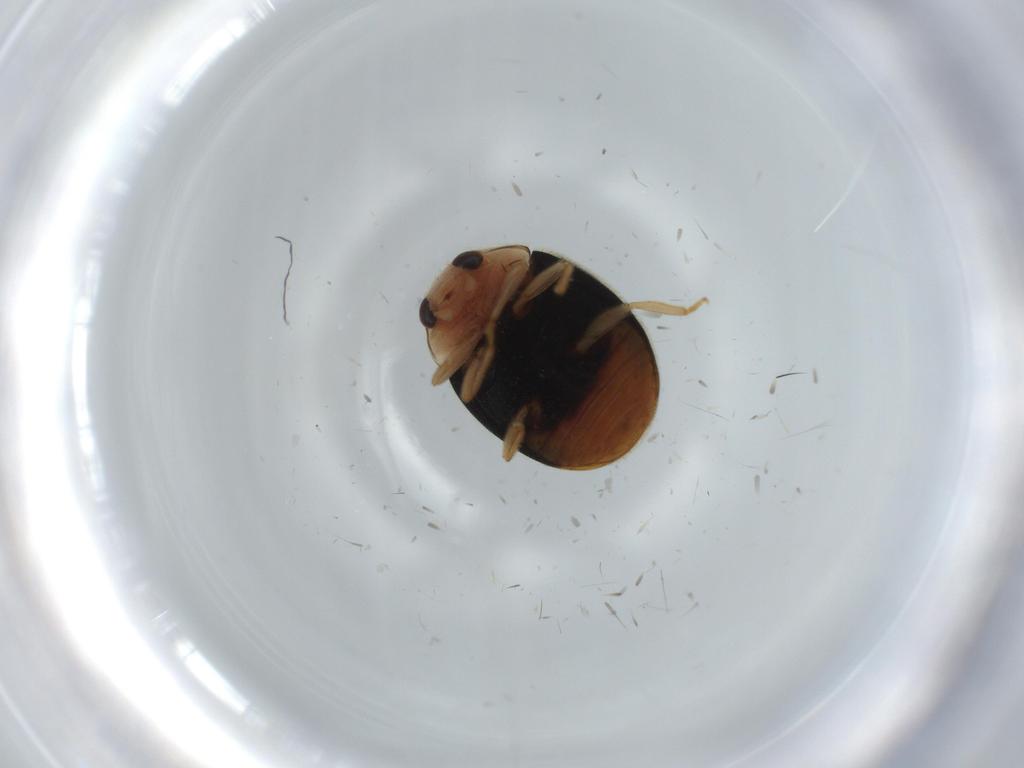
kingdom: Animalia
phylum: Arthropoda
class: Insecta
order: Coleoptera
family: Coccinellidae
